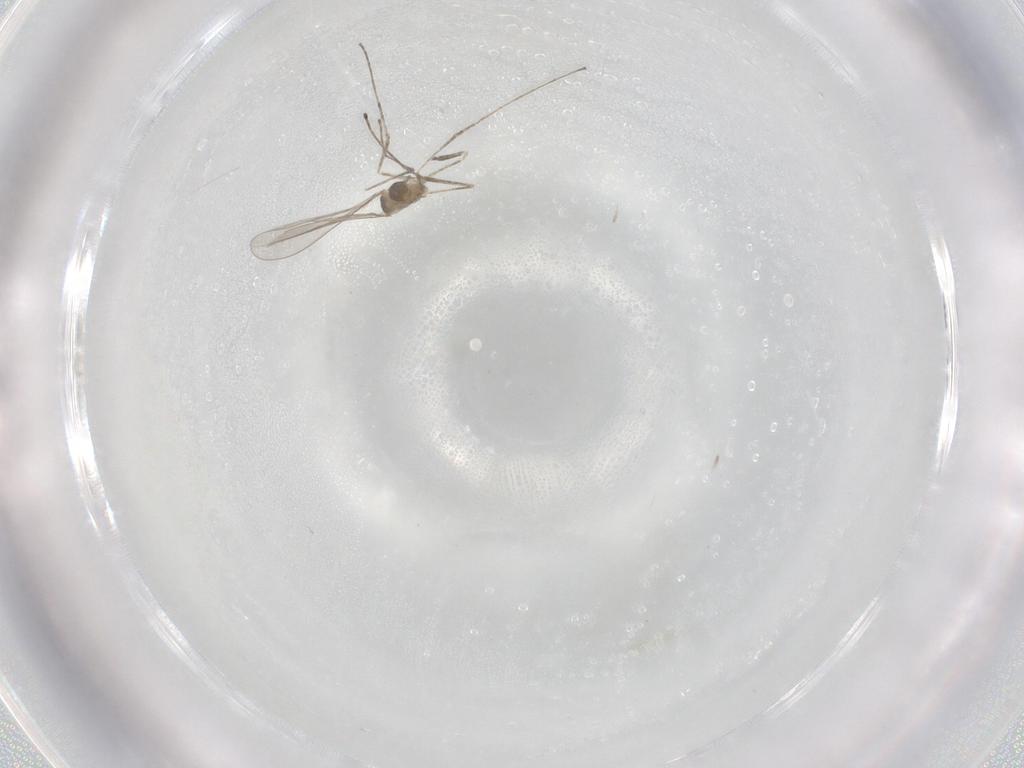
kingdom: Animalia
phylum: Arthropoda
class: Insecta
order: Diptera
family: Cecidomyiidae
